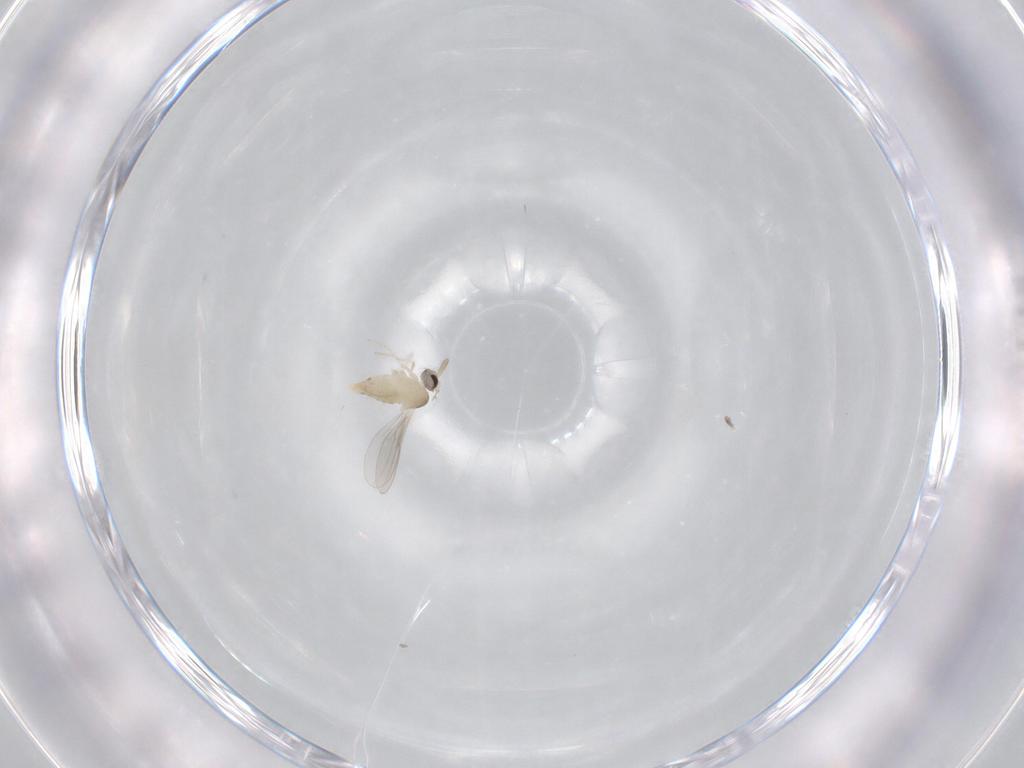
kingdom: Animalia
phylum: Arthropoda
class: Insecta
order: Diptera
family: Cecidomyiidae
